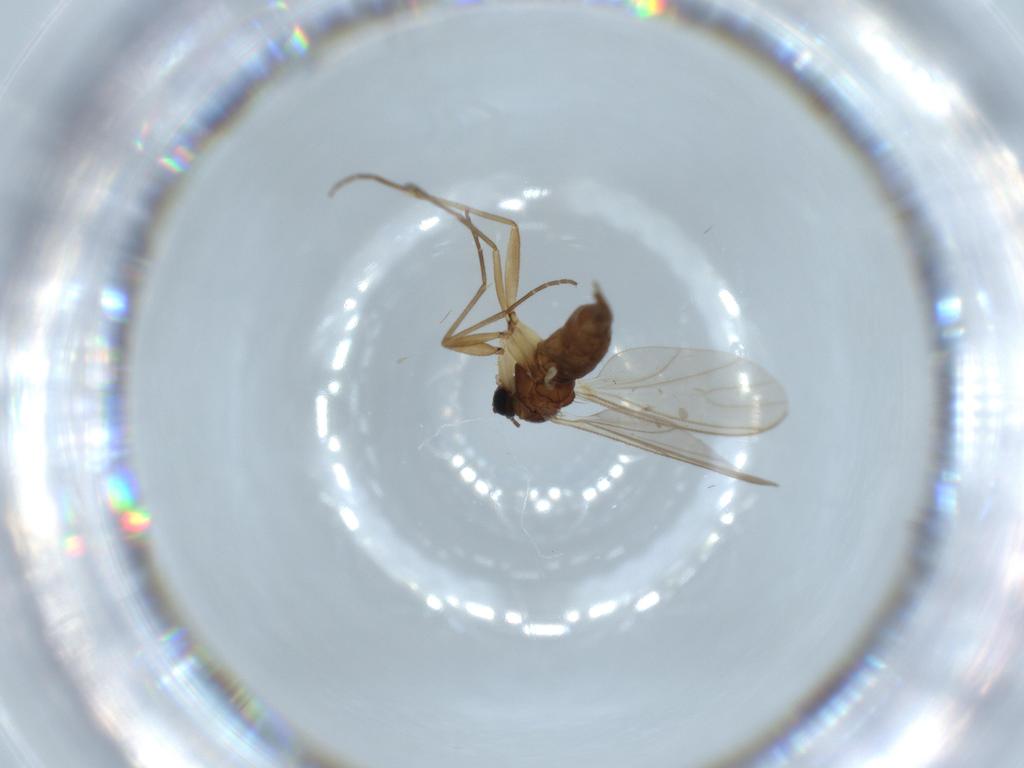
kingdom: Animalia
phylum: Arthropoda
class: Insecta
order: Diptera
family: Sciaridae
